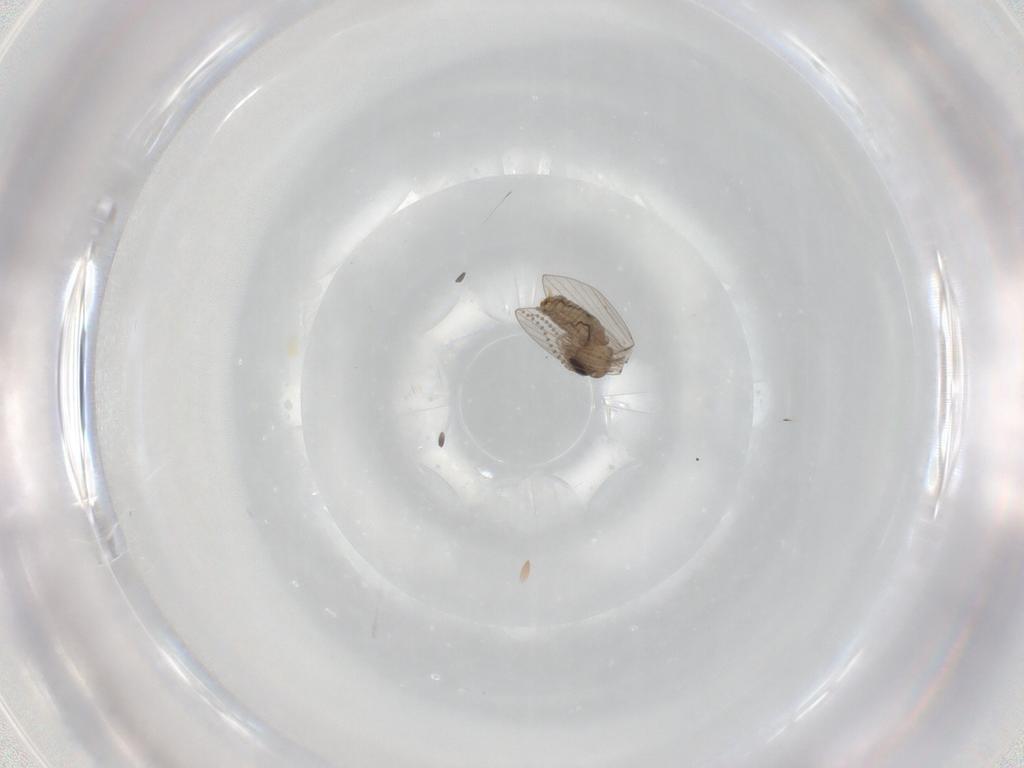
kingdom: Animalia
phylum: Arthropoda
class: Insecta
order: Diptera
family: Psychodidae
